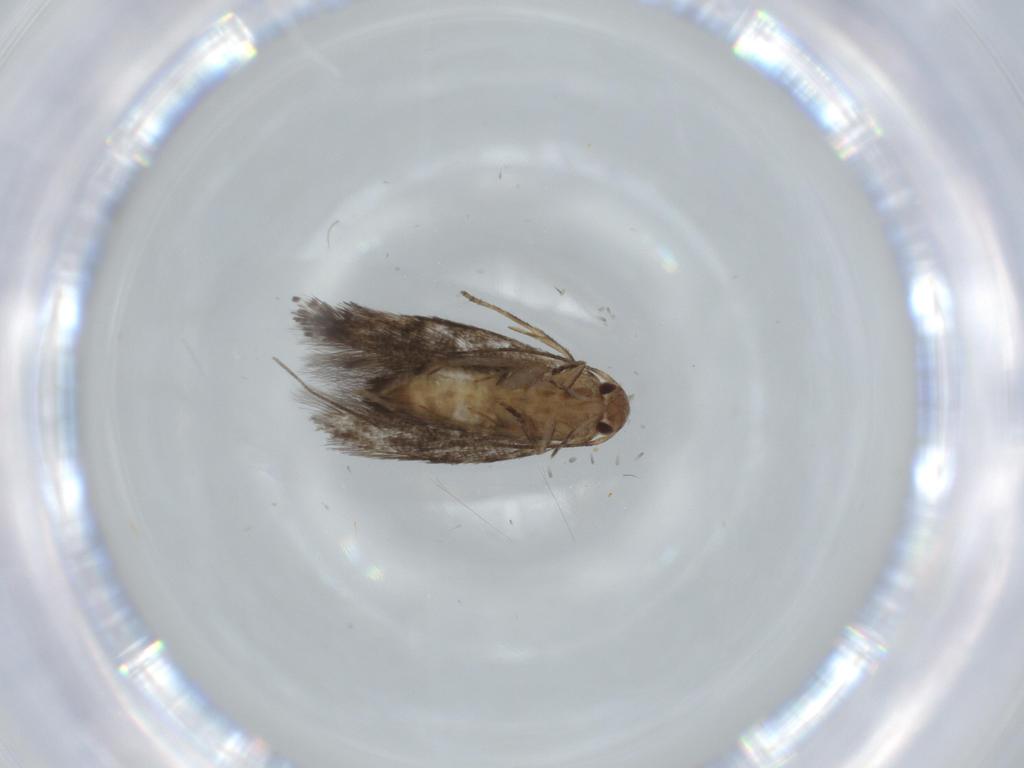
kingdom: Animalia
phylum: Arthropoda
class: Insecta
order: Lepidoptera
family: Gelechiidae
